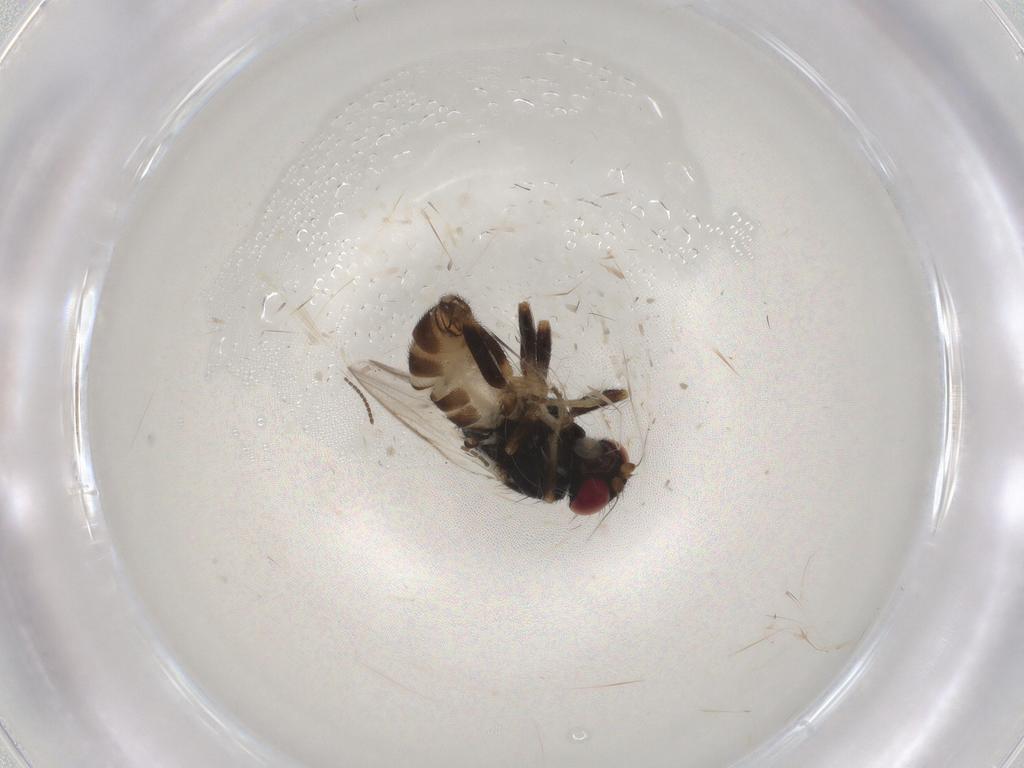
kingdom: Animalia
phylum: Arthropoda
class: Insecta
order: Diptera
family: Chloropidae
